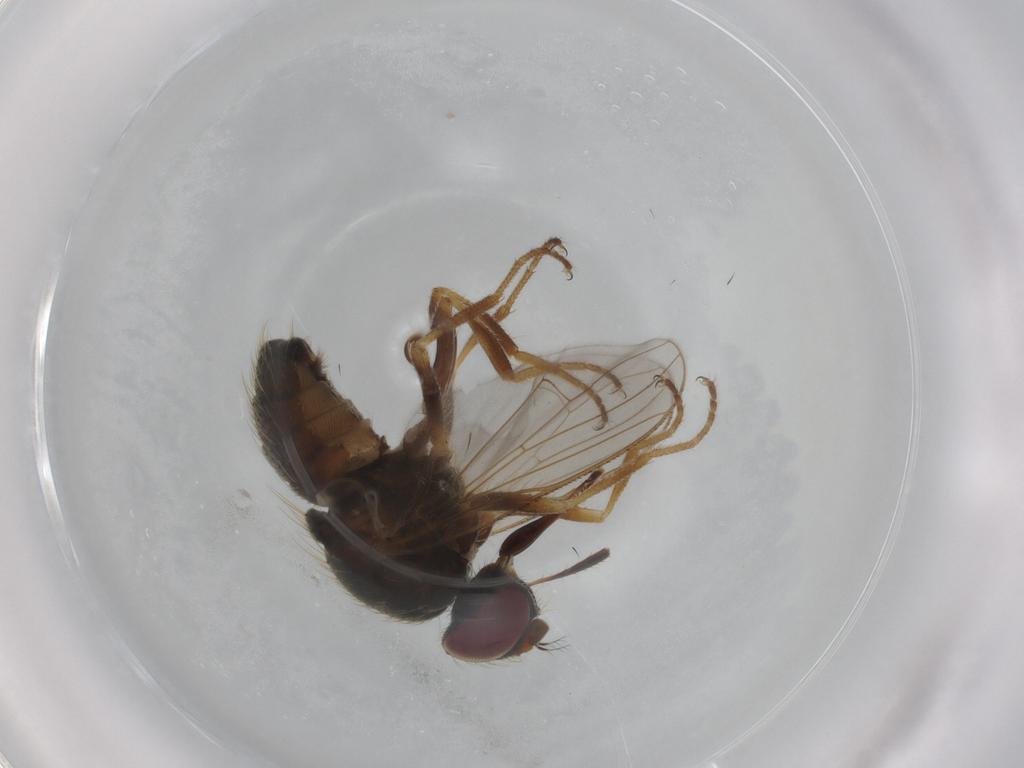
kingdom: Animalia
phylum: Arthropoda
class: Insecta
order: Diptera
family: Muscidae
